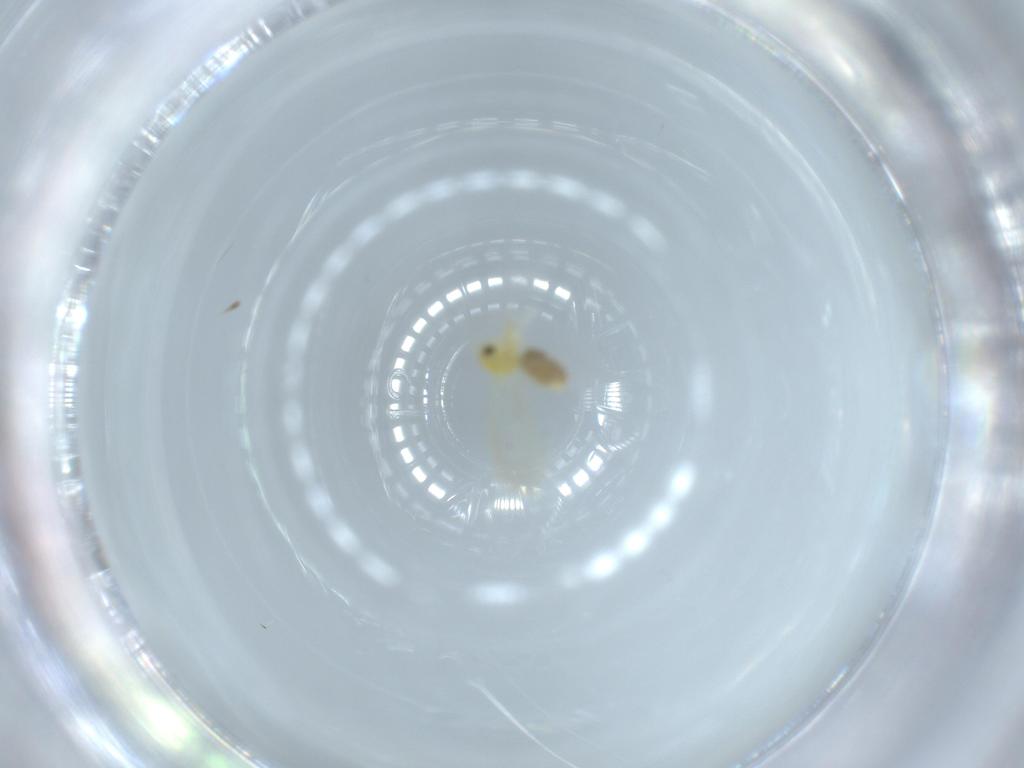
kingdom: Animalia
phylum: Arthropoda
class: Insecta
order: Hemiptera
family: Aleyrodidae
